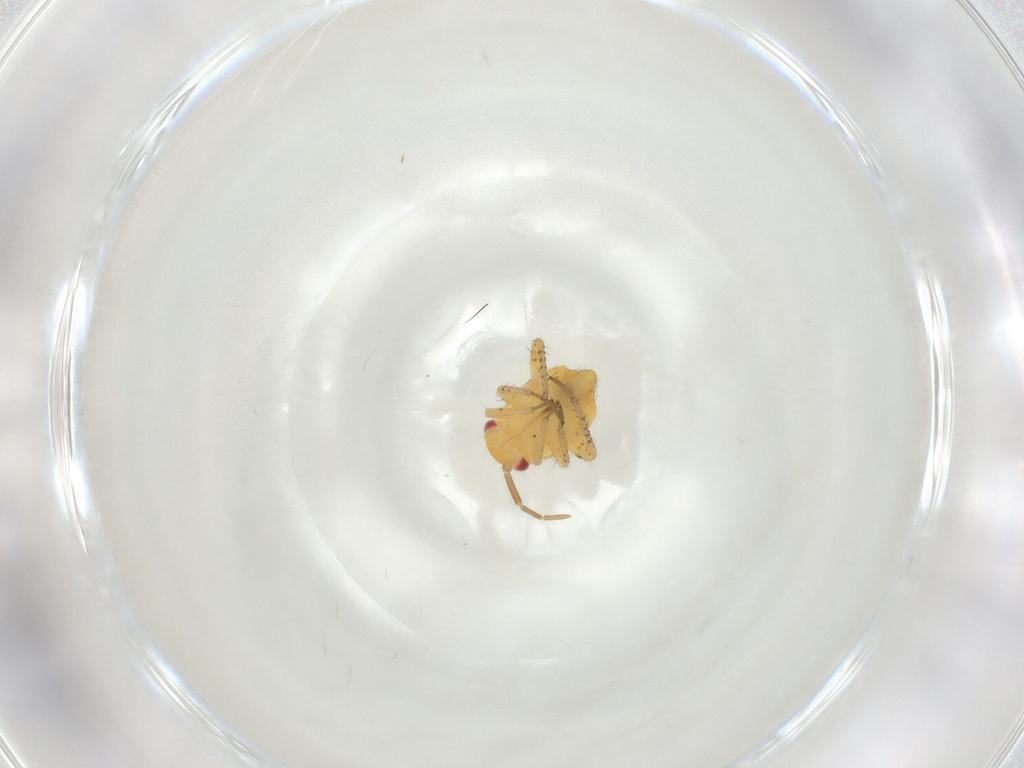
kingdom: Animalia
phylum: Arthropoda
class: Insecta
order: Hemiptera
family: Miridae
